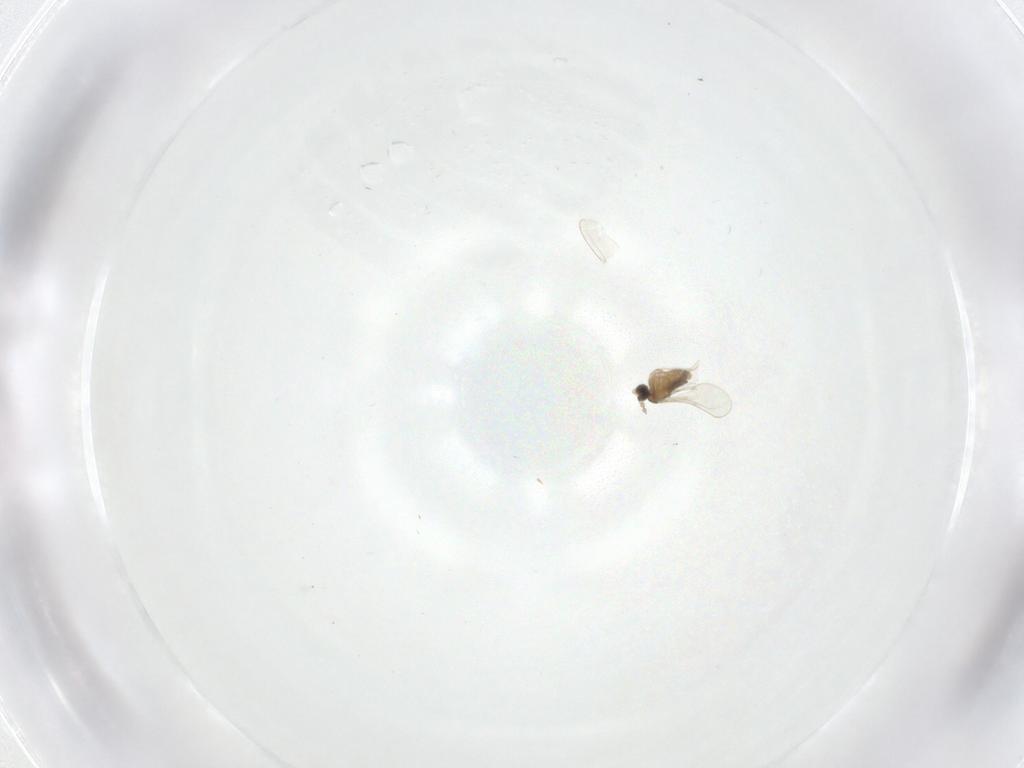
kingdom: Animalia
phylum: Arthropoda
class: Insecta
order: Diptera
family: Cecidomyiidae
